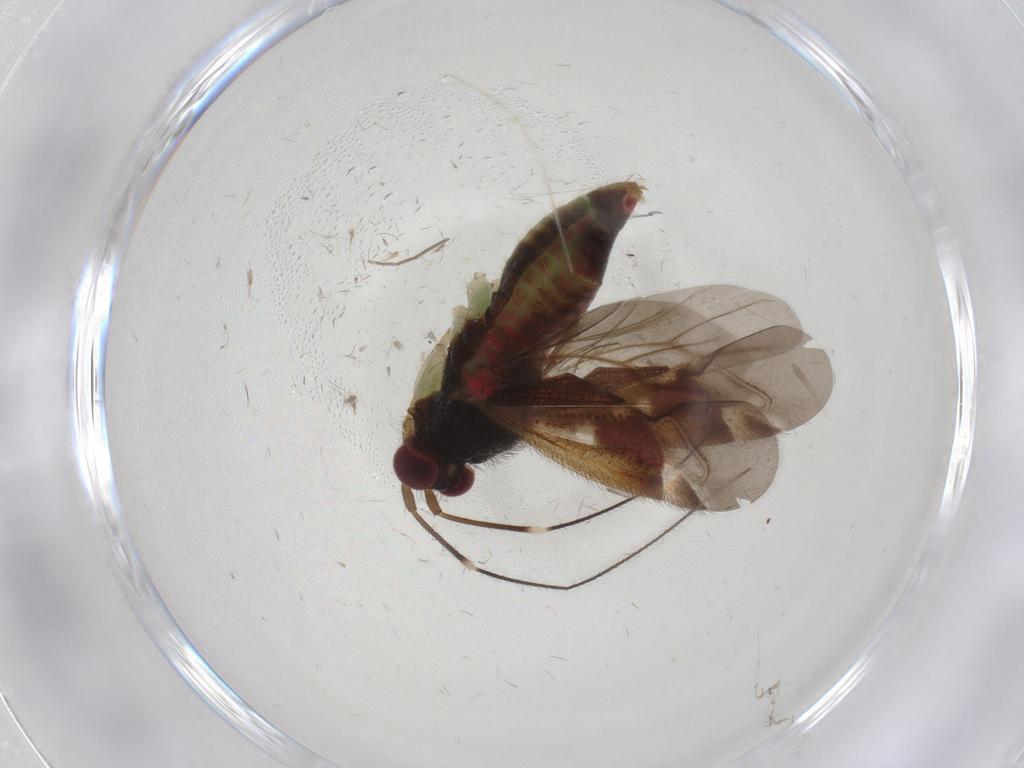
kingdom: Animalia
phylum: Arthropoda
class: Insecta
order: Hemiptera
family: Miridae
